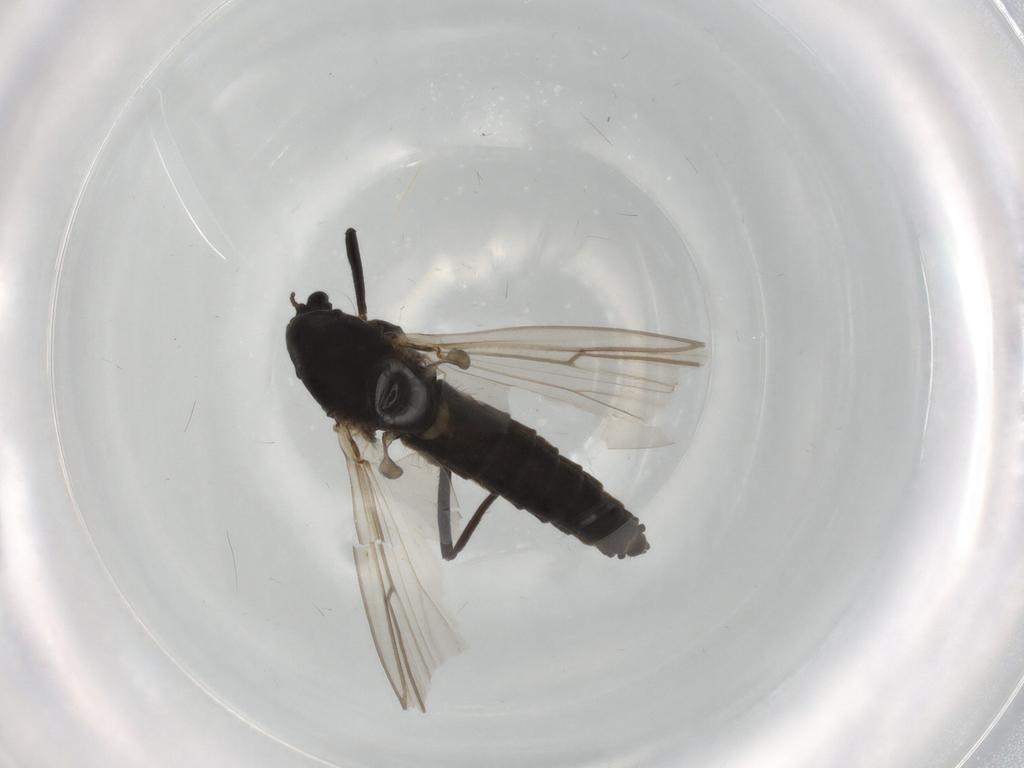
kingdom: Animalia
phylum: Arthropoda
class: Insecta
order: Diptera
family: Chironomidae
